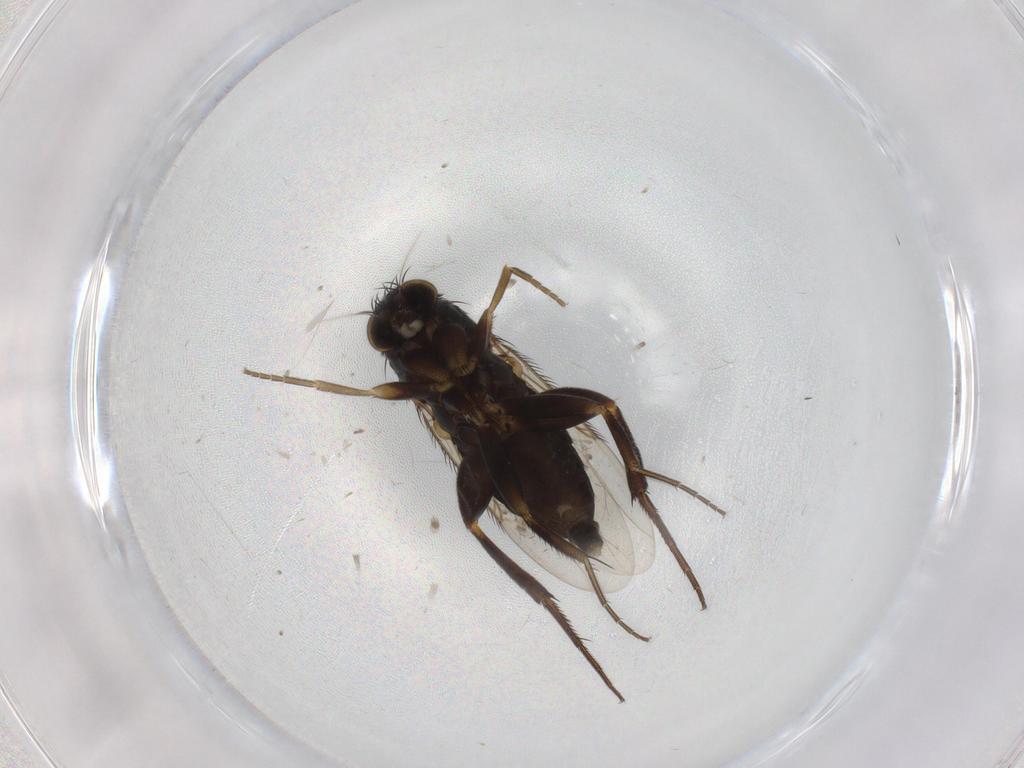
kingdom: Animalia
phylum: Arthropoda
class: Insecta
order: Diptera
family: Phoridae
